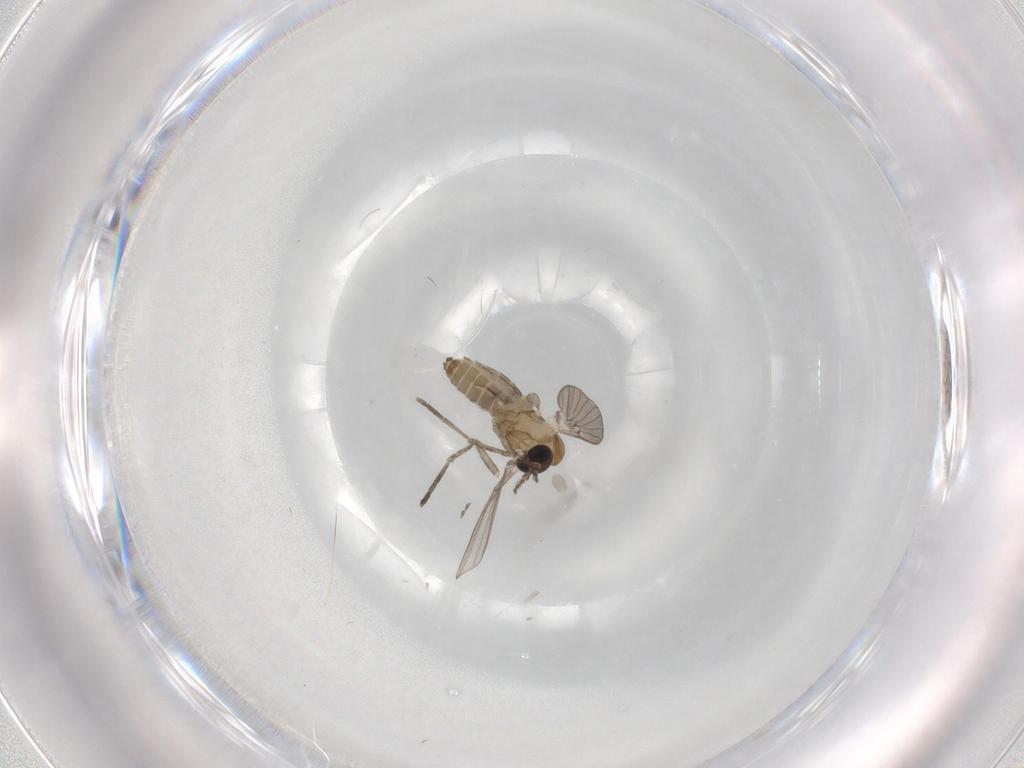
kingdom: Animalia
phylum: Arthropoda
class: Insecta
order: Diptera
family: Psychodidae
